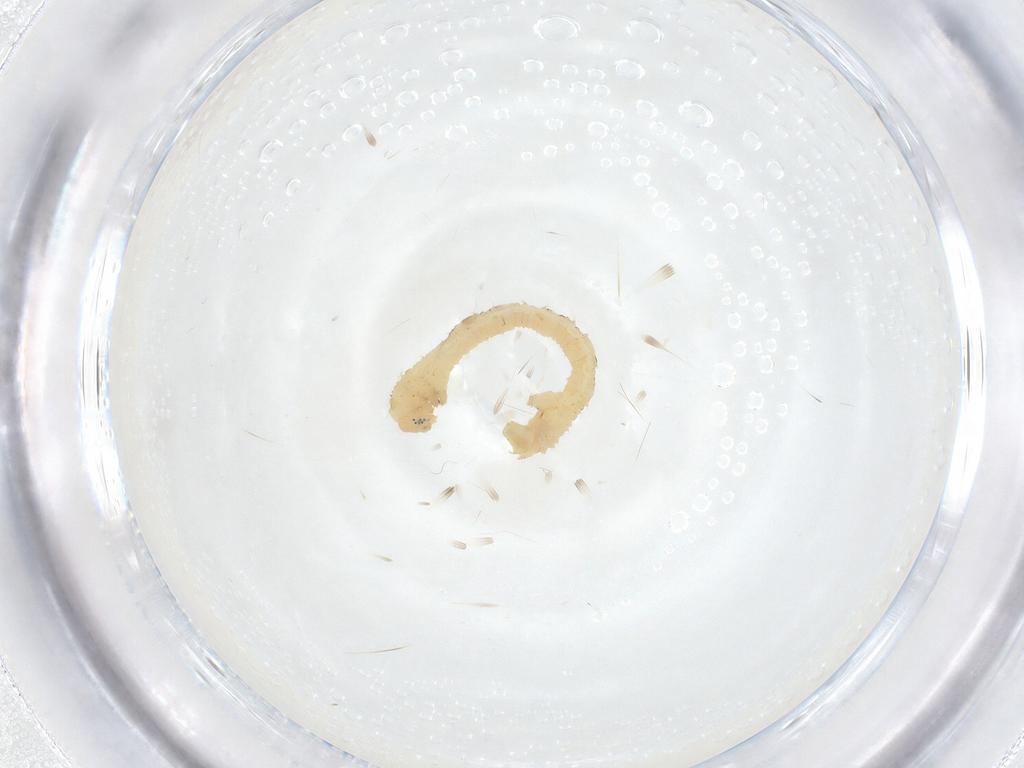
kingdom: Animalia
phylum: Arthropoda
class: Insecta
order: Lepidoptera
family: Geometridae
